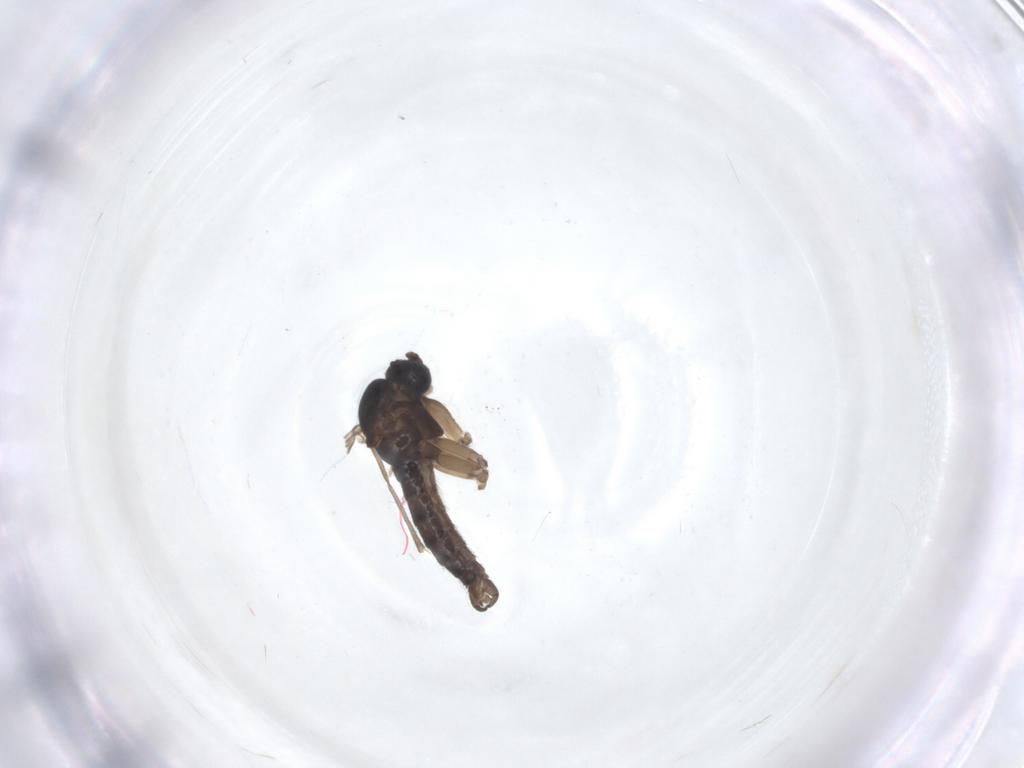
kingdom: Animalia
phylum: Arthropoda
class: Insecta
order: Diptera
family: Sciaridae
